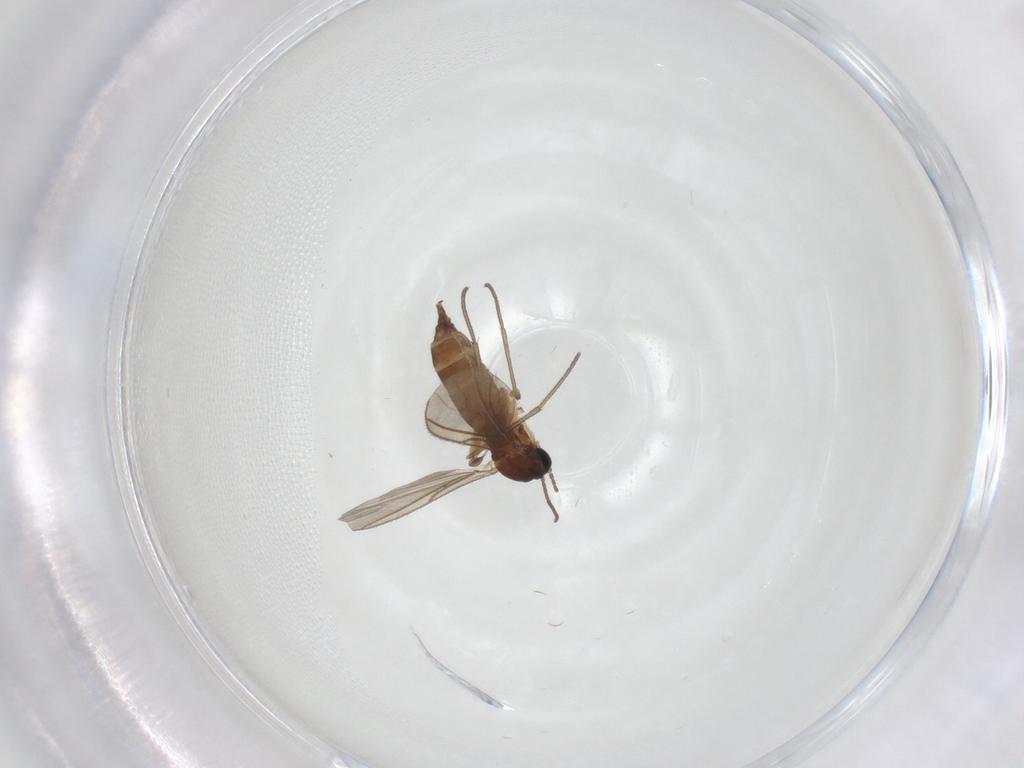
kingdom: Animalia
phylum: Arthropoda
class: Insecta
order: Diptera
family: Sciaridae
